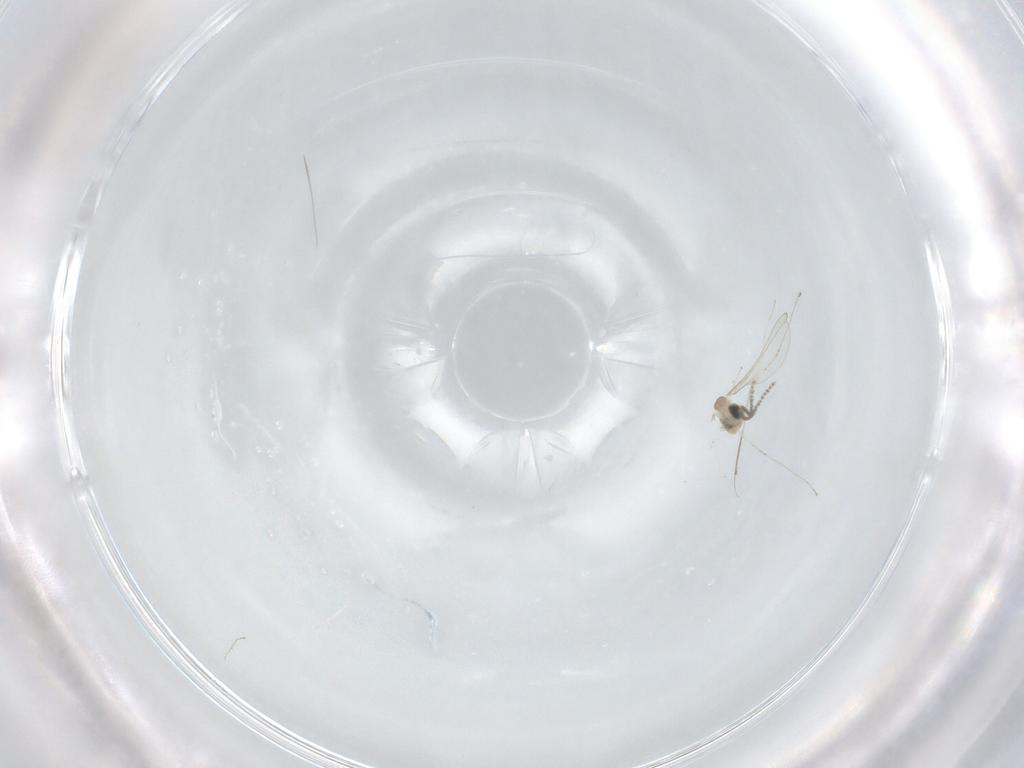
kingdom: Animalia
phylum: Arthropoda
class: Insecta
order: Diptera
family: Cecidomyiidae
